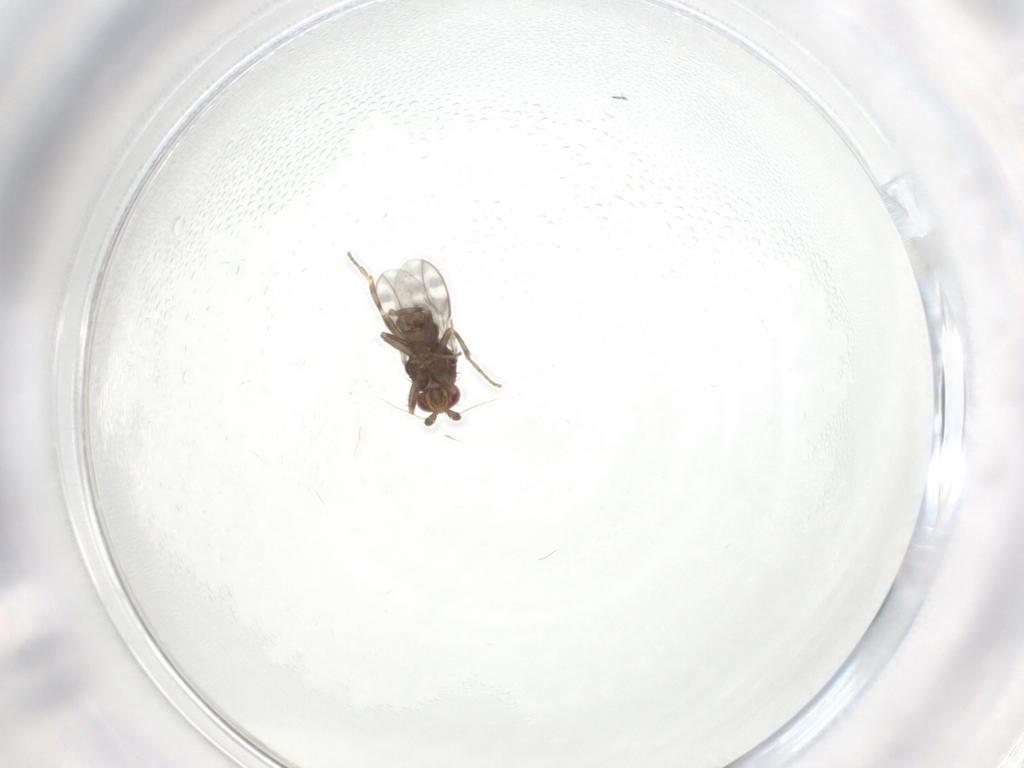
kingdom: Animalia
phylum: Arthropoda
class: Insecta
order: Diptera
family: Sphaeroceridae
